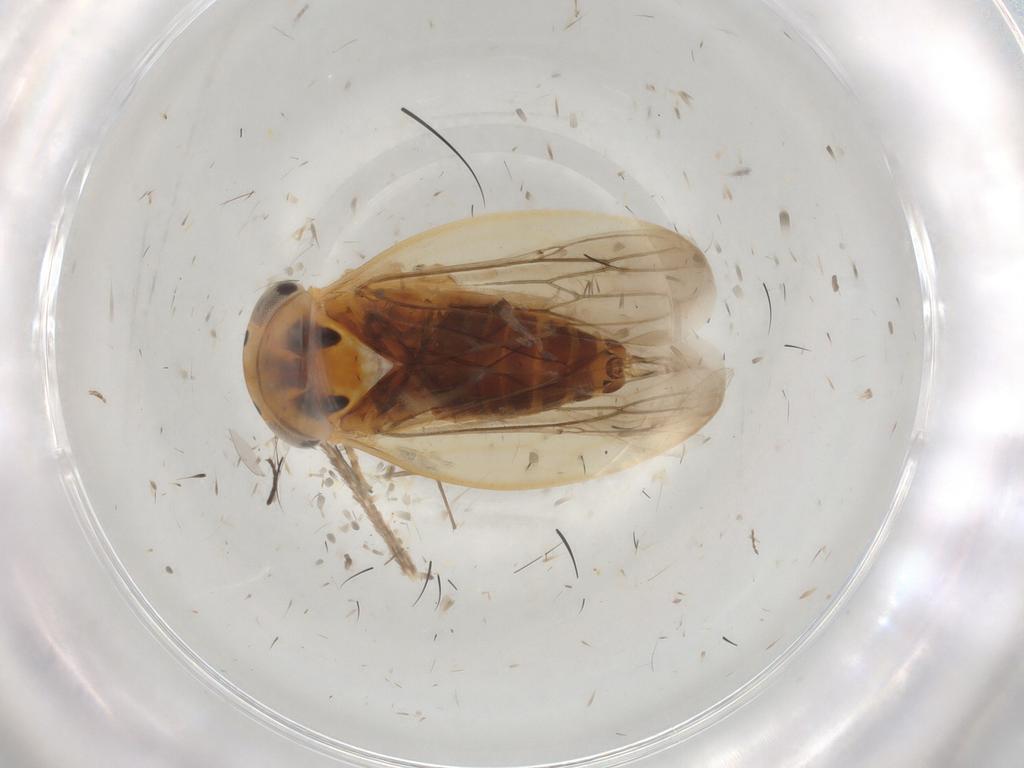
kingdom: Animalia
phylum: Arthropoda
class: Insecta
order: Hemiptera
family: Cicadellidae
